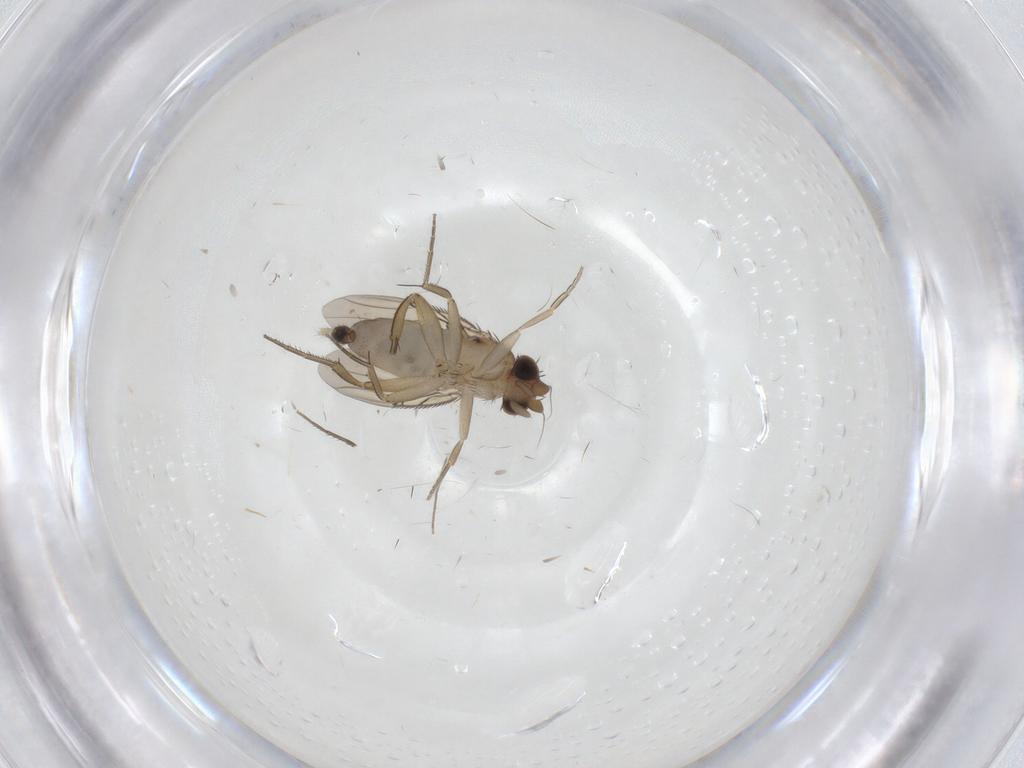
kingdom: Animalia
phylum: Arthropoda
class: Insecta
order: Diptera
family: Phoridae
